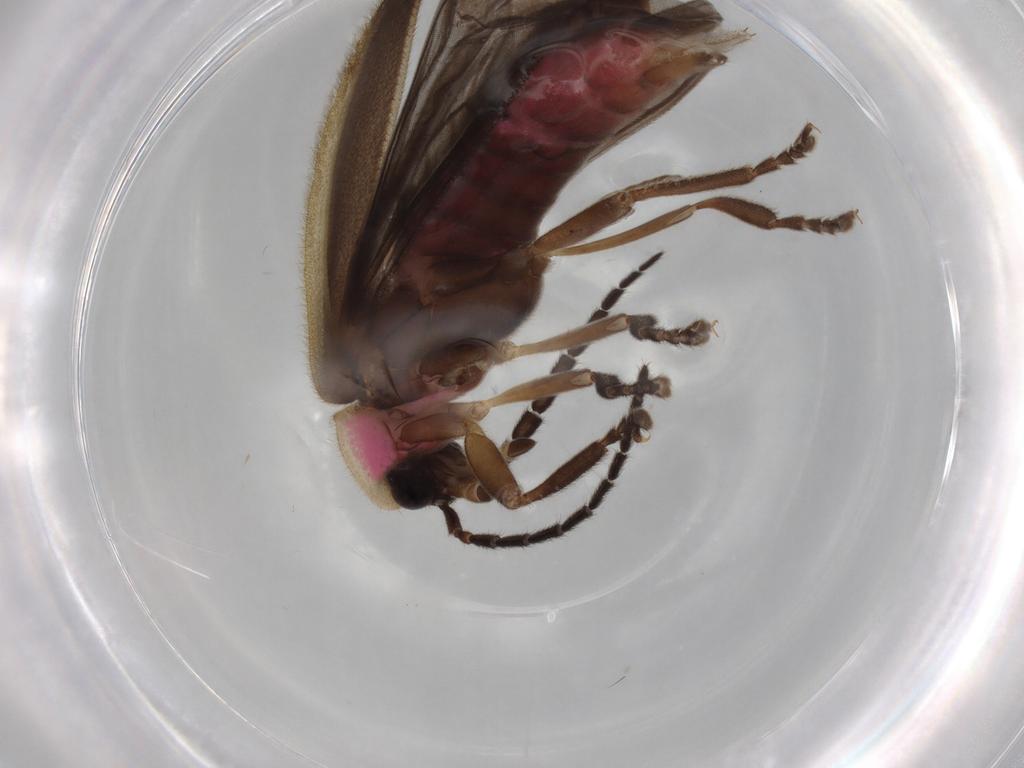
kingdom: Animalia
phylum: Arthropoda
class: Insecta
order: Coleoptera
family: Lampyridae
